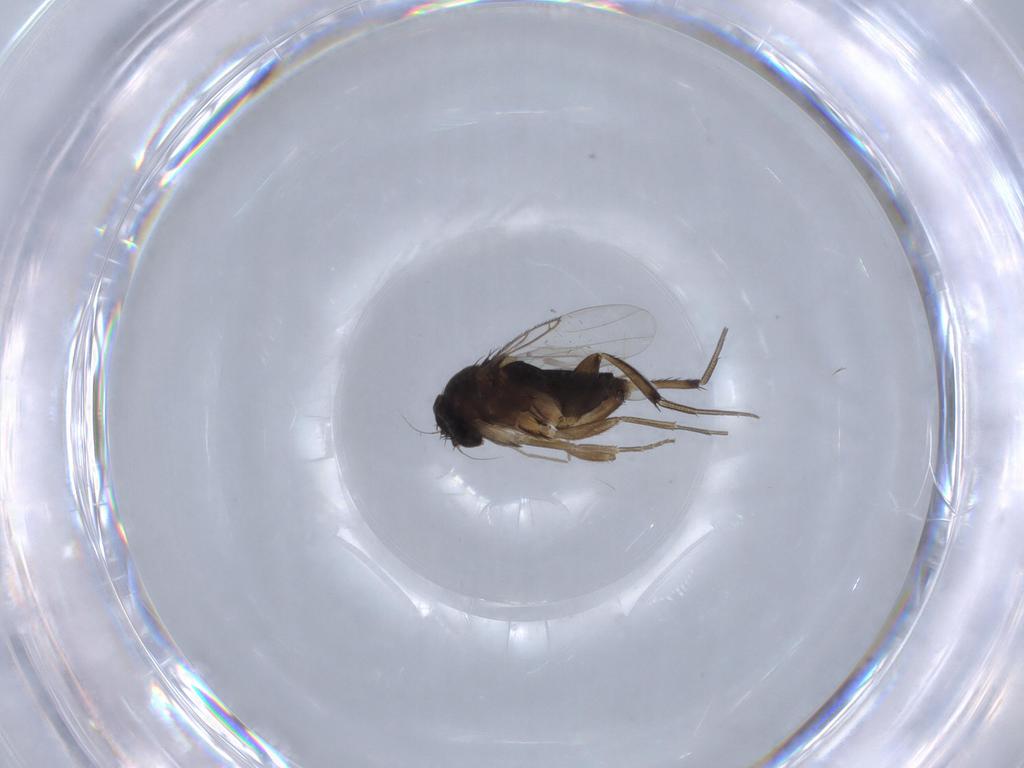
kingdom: Animalia
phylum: Arthropoda
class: Insecta
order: Diptera
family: Phoridae
